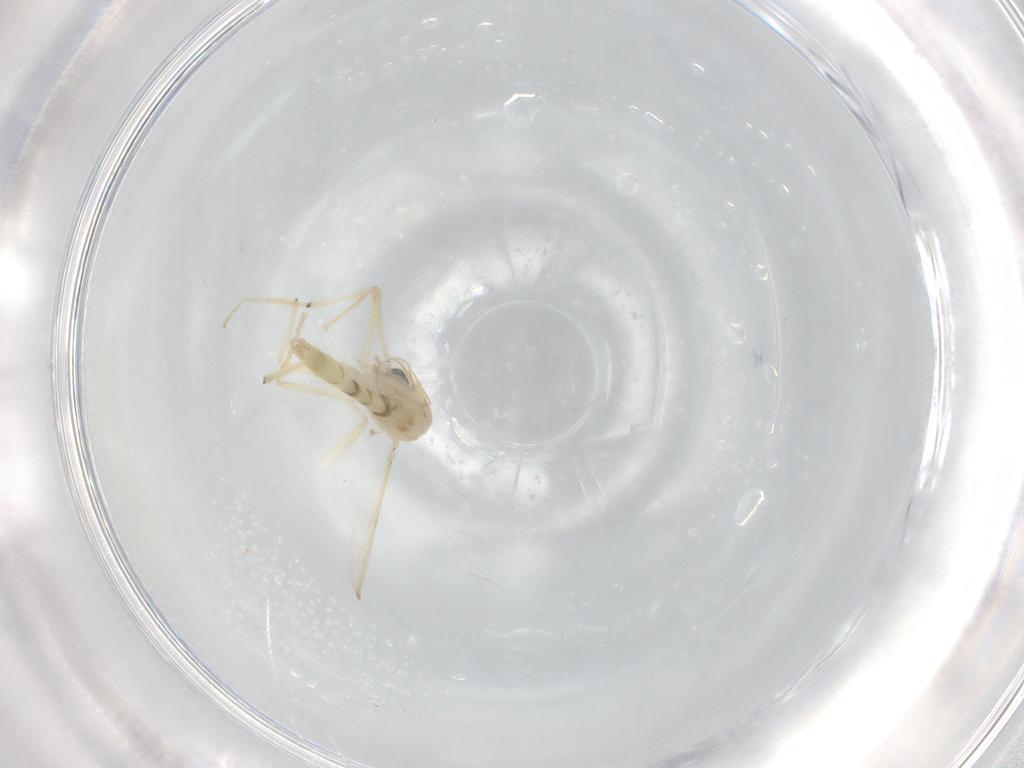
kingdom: Animalia
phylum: Arthropoda
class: Insecta
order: Diptera
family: Chironomidae
